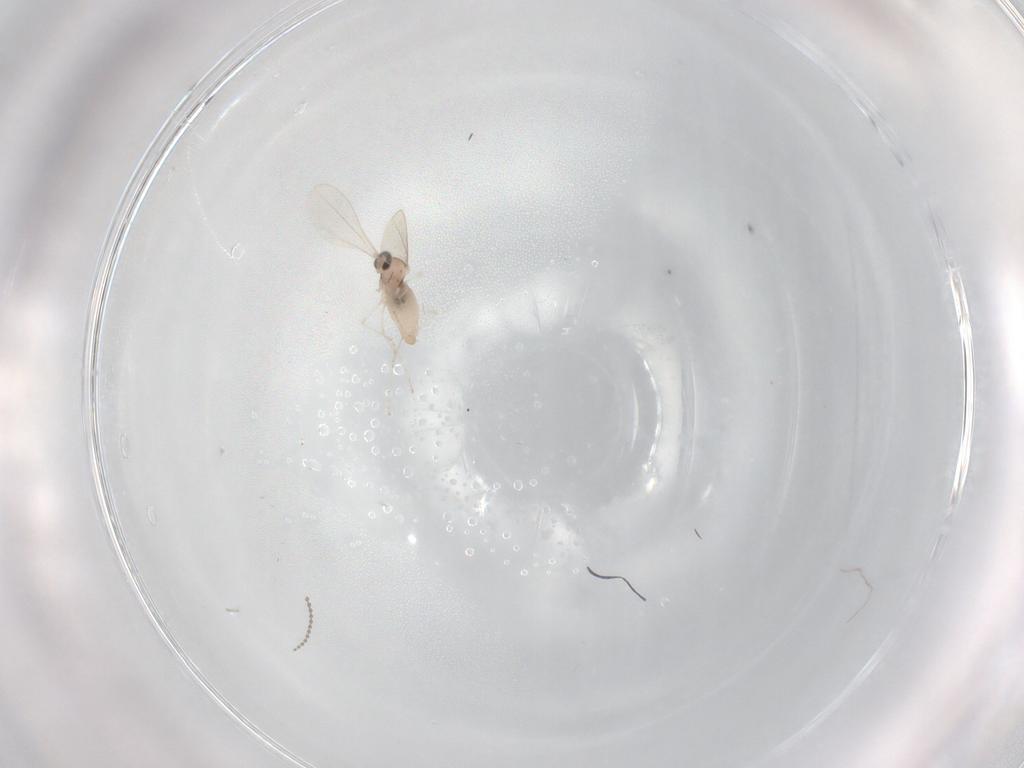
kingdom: Animalia
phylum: Arthropoda
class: Insecta
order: Diptera
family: Cecidomyiidae
